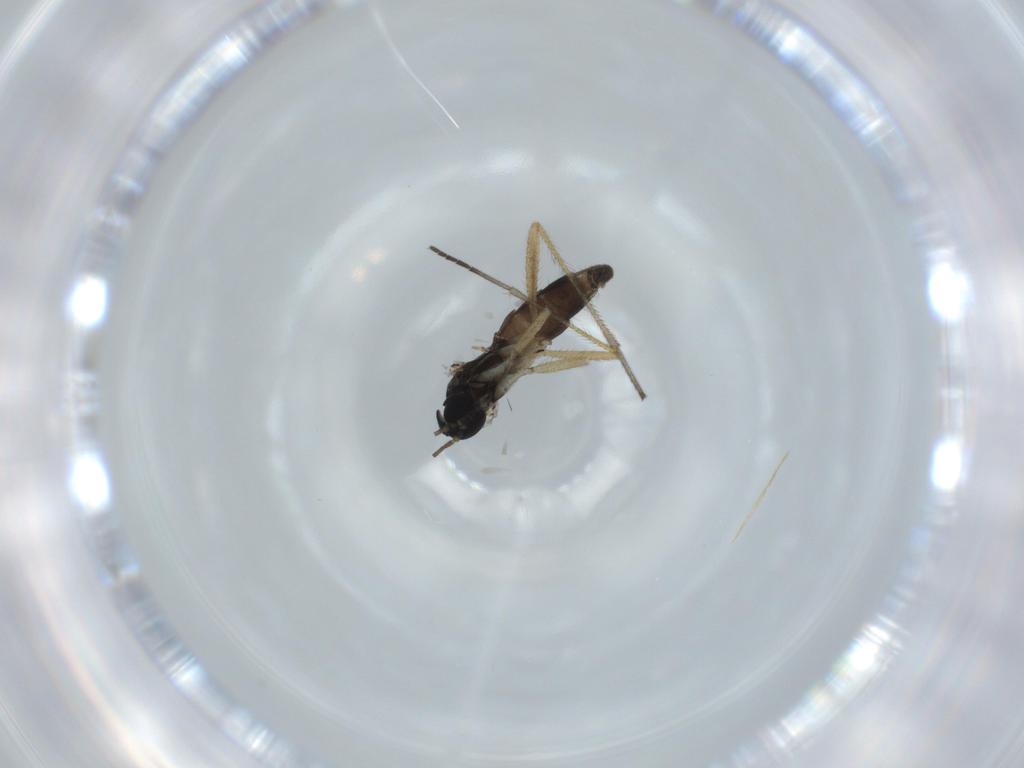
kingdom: Animalia
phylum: Arthropoda
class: Insecta
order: Diptera
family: Sciaridae
